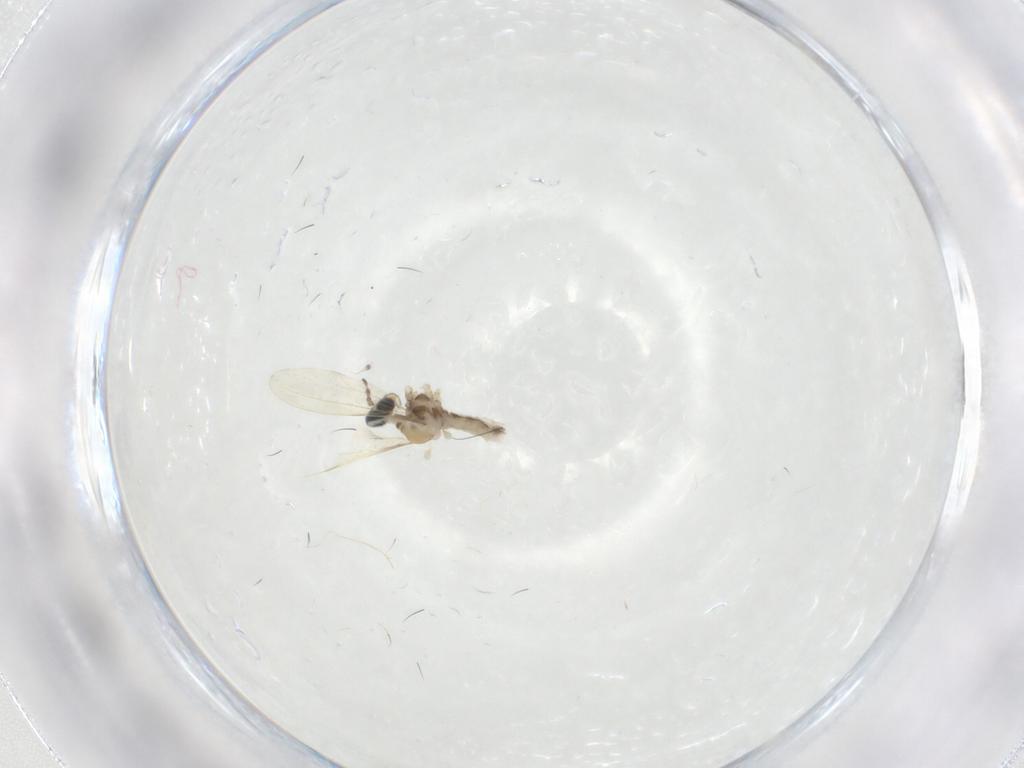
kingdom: Animalia
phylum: Arthropoda
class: Insecta
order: Diptera
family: Cecidomyiidae
